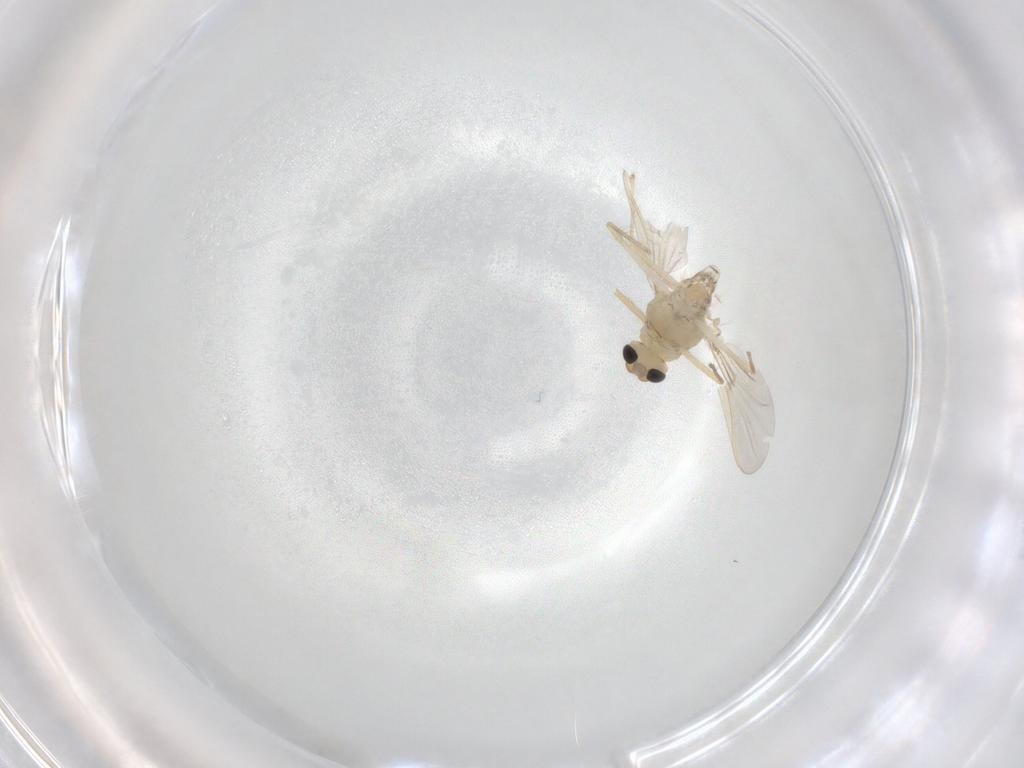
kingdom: Animalia
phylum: Arthropoda
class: Insecta
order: Diptera
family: Chironomidae
